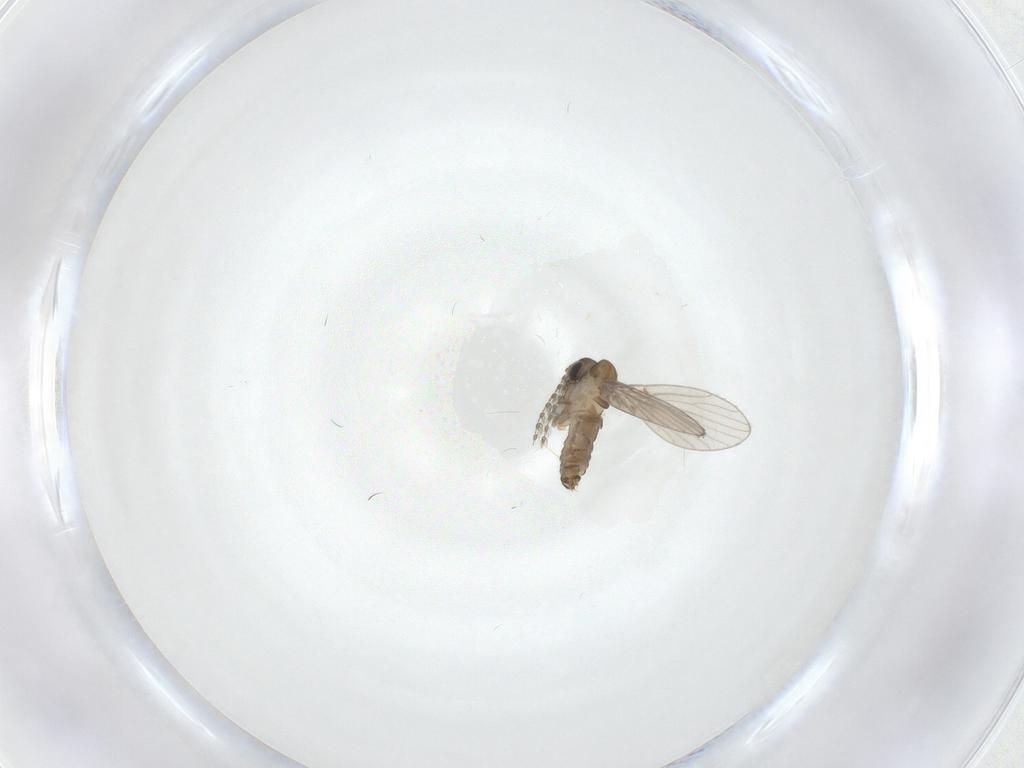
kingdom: Animalia
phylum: Arthropoda
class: Insecta
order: Diptera
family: Psychodidae
